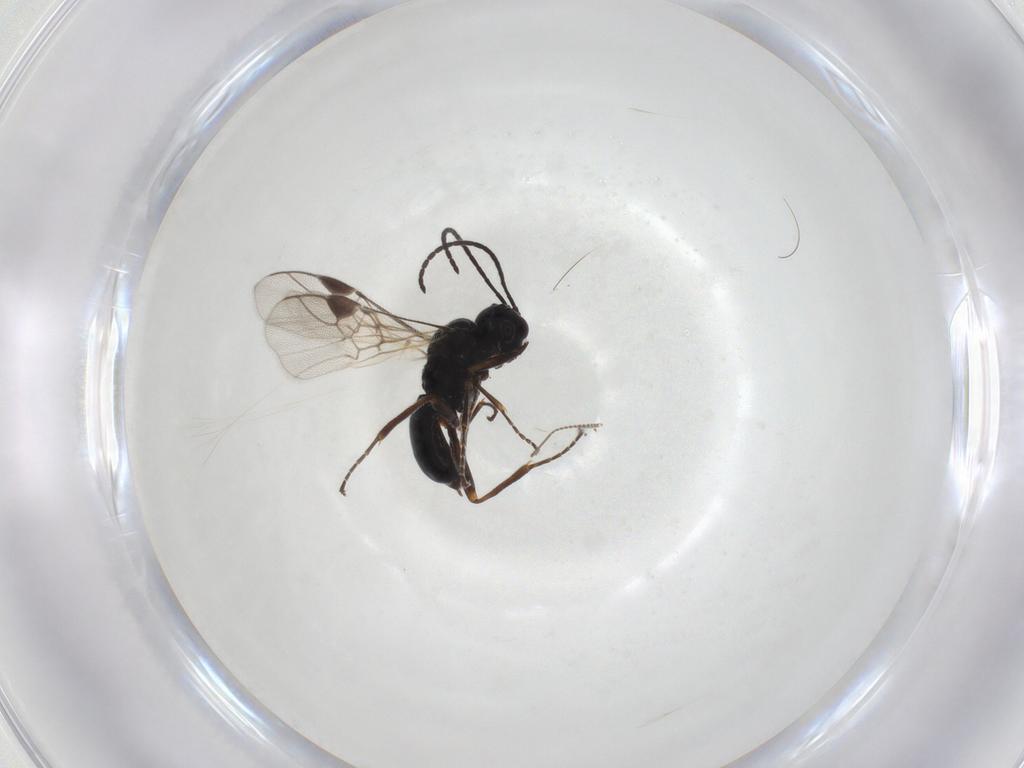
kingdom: Animalia
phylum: Arthropoda
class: Insecta
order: Hymenoptera
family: Braconidae
